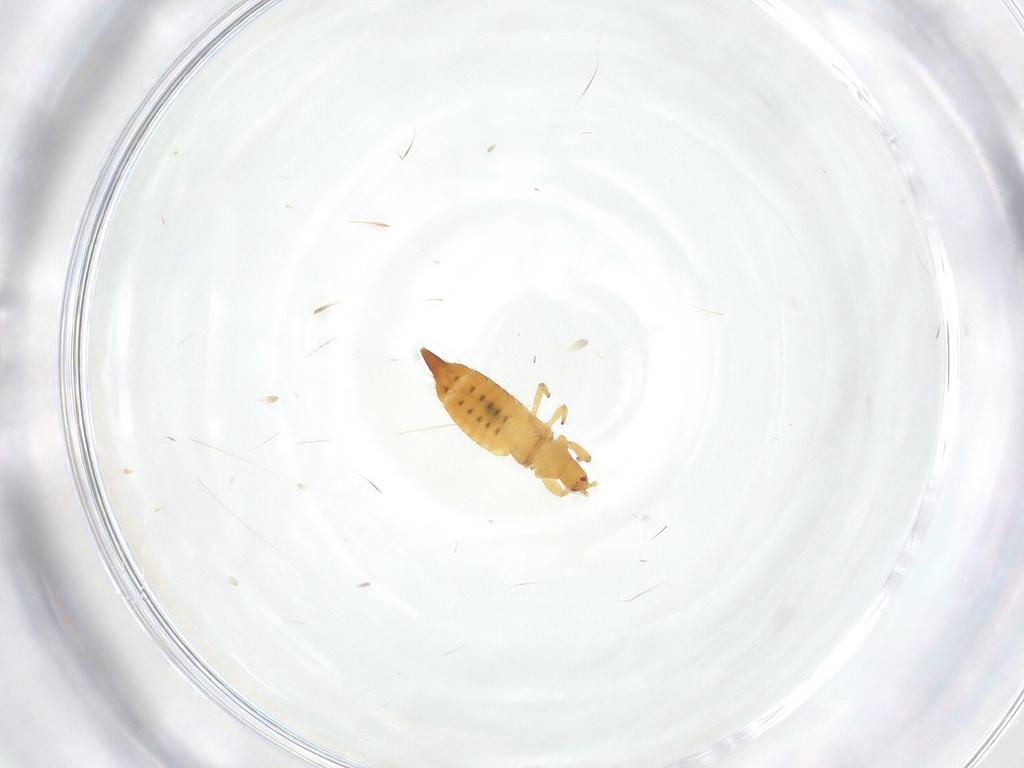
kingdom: Animalia
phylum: Arthropoda
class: Insecta
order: Thysanoptera
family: Phlaeothripidae
